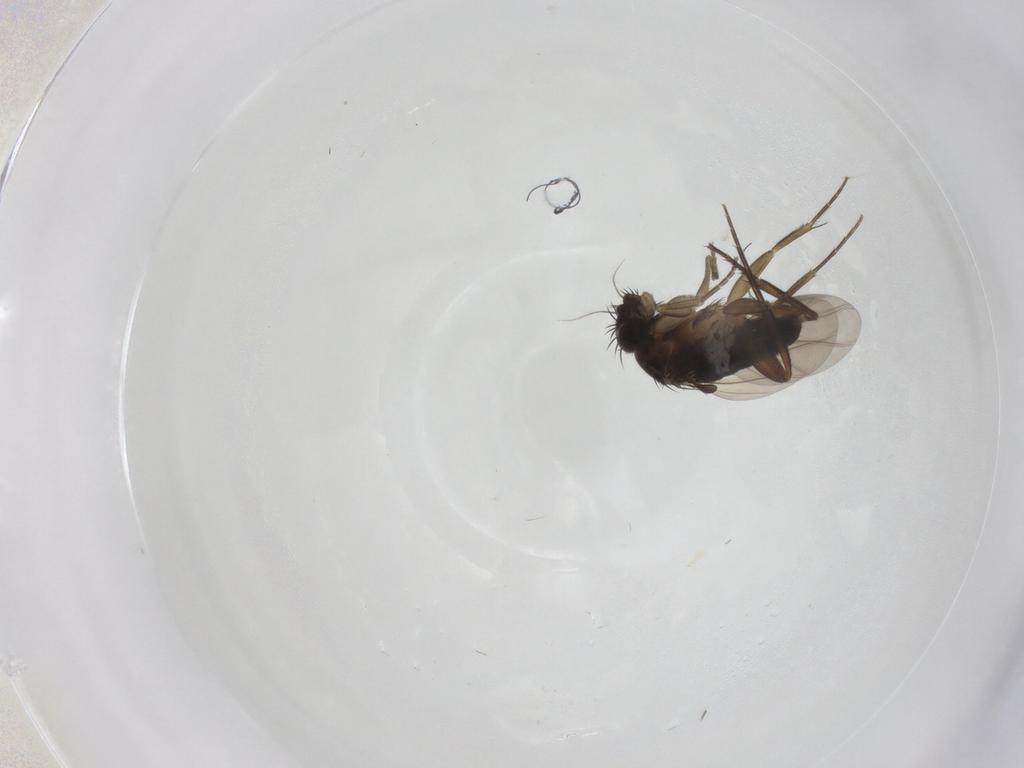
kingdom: Animalia
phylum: Arthropoda
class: Insecta
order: Diptera
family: Phoridae
